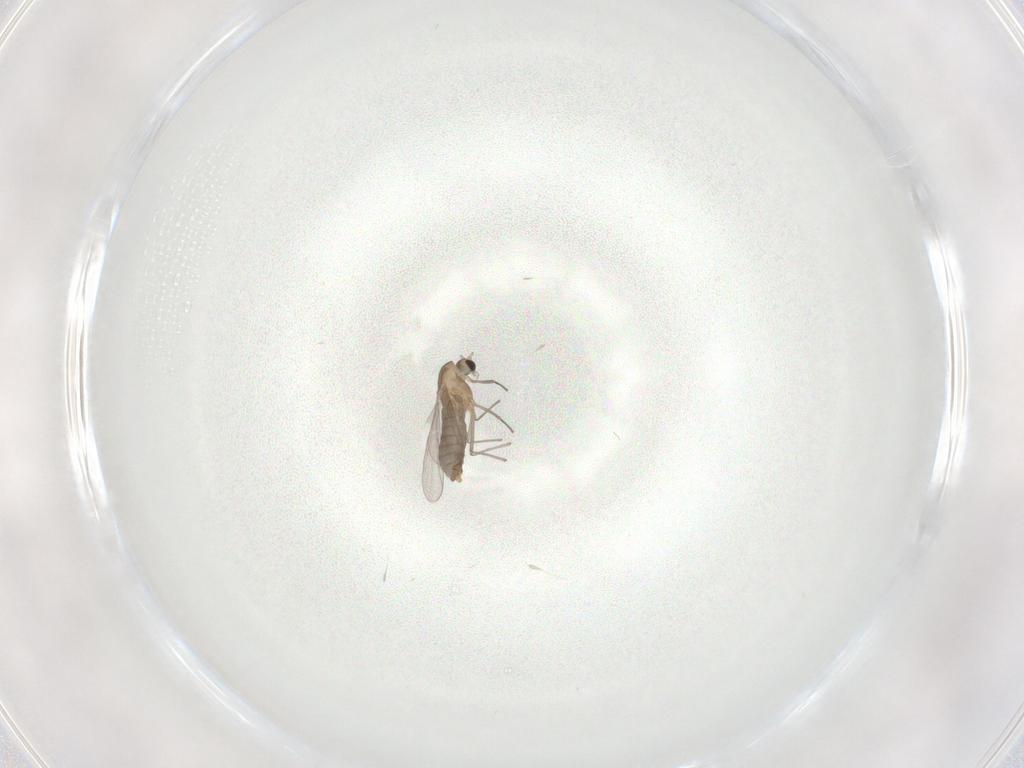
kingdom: Animalia
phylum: Arthropoda
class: Insecta
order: Diptera
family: Chironomidae
